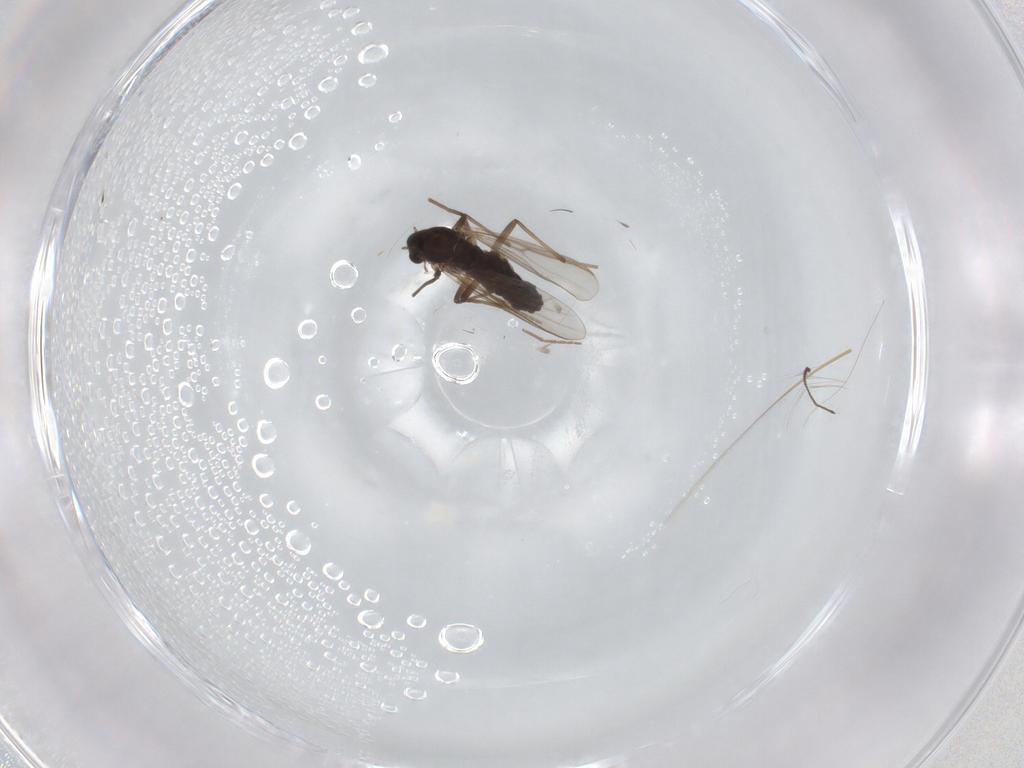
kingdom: Animalia
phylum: Arthropoda
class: Insecta
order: Diptera
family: Chironomidae
